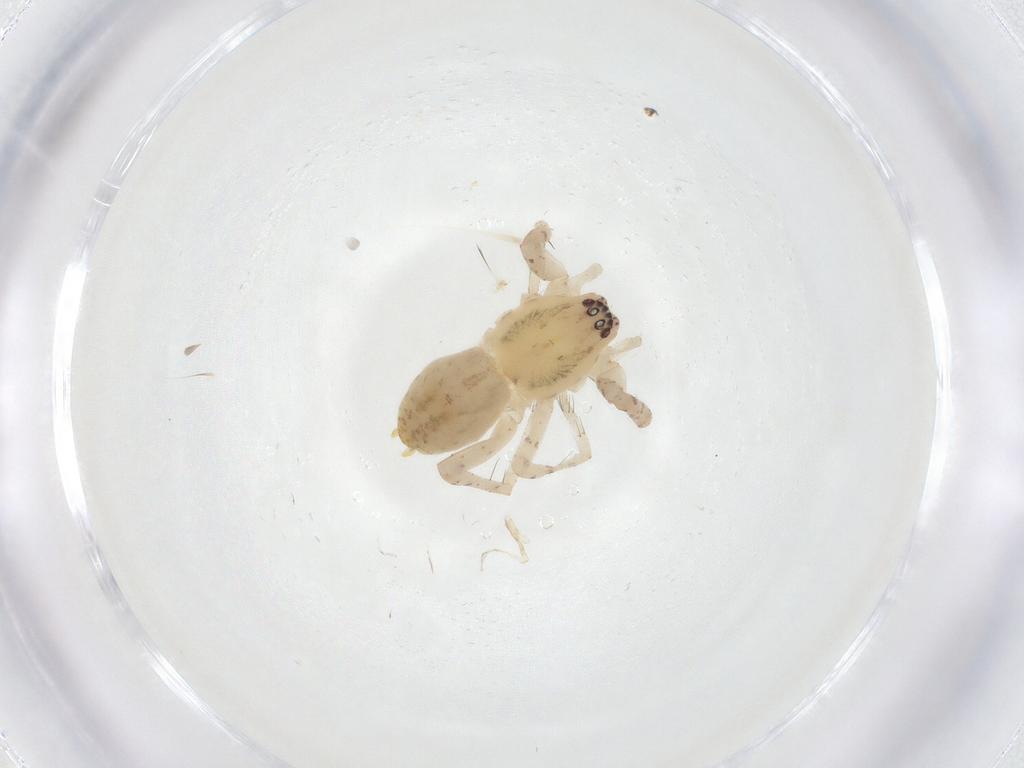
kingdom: Animalia
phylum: Arthropoda
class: Arachnida
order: Araneae
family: Anyphaenidae
